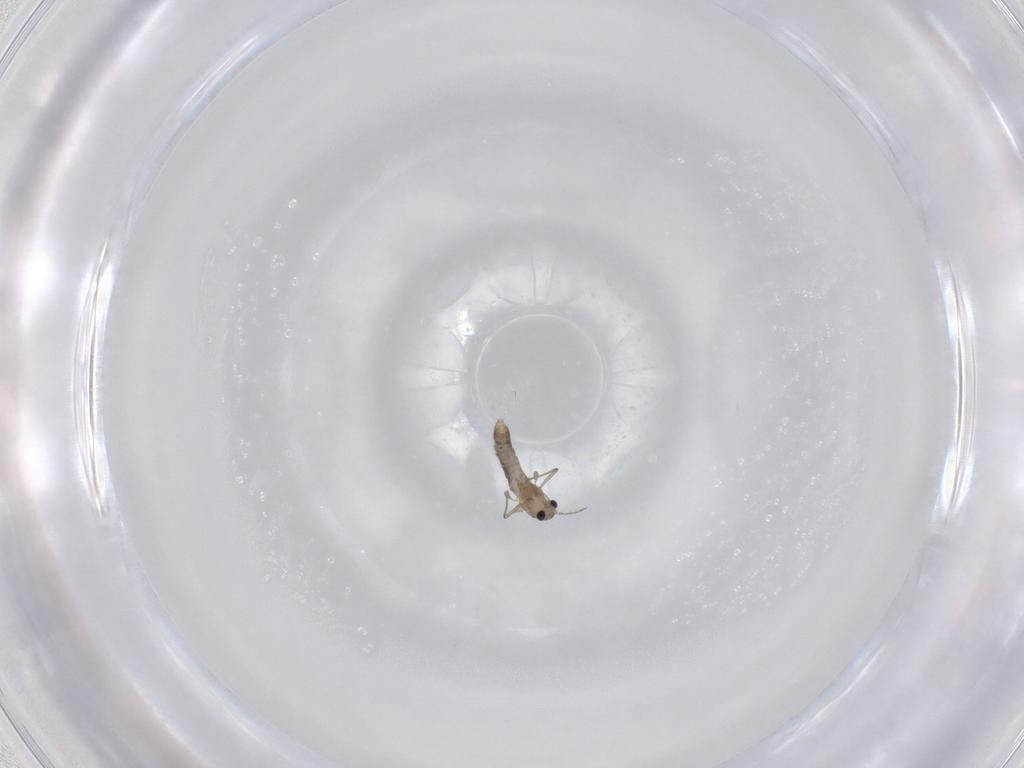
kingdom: Animalia
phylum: Arthropoda
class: Insecta
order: Diptera
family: Chironomidae
